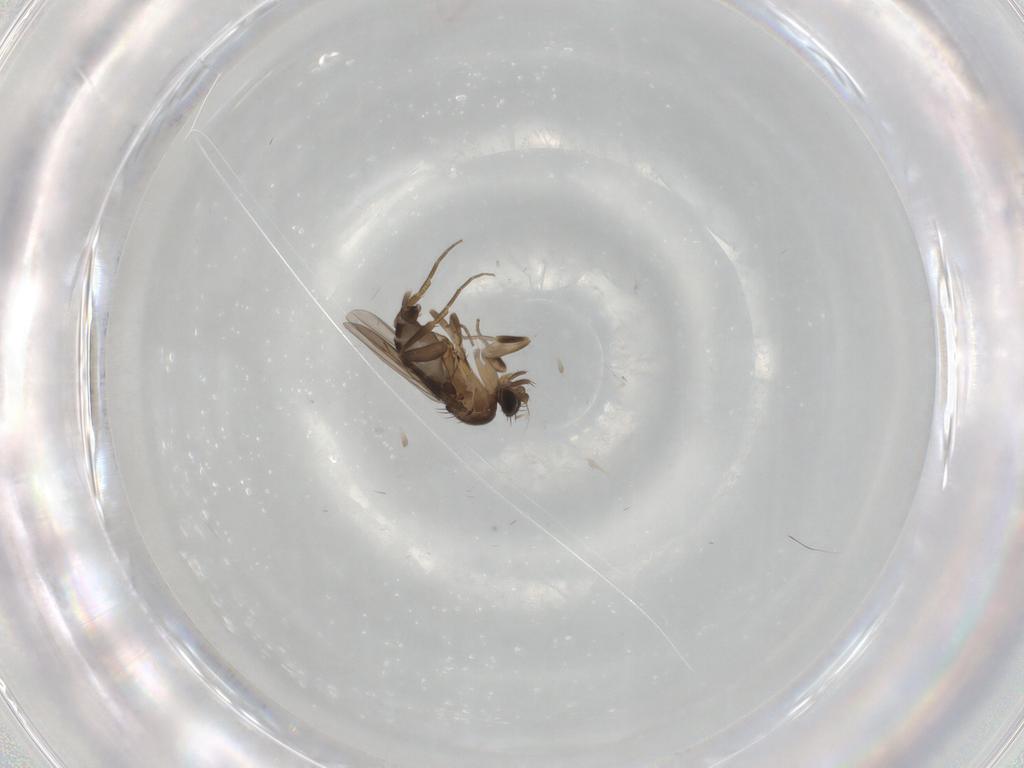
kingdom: Animalia
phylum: Arthropoda
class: Insecta
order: Diptera
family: Phoridae
